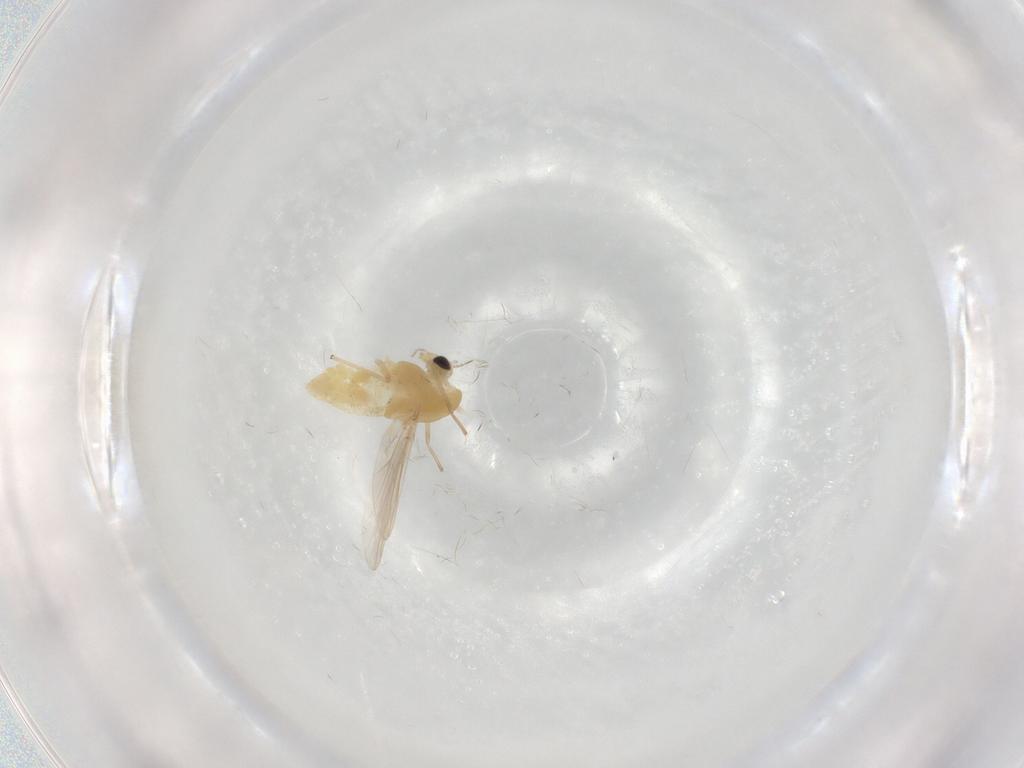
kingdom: Animalia
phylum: Arthropoda
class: Insecta
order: Diptera
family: Chironomidae
